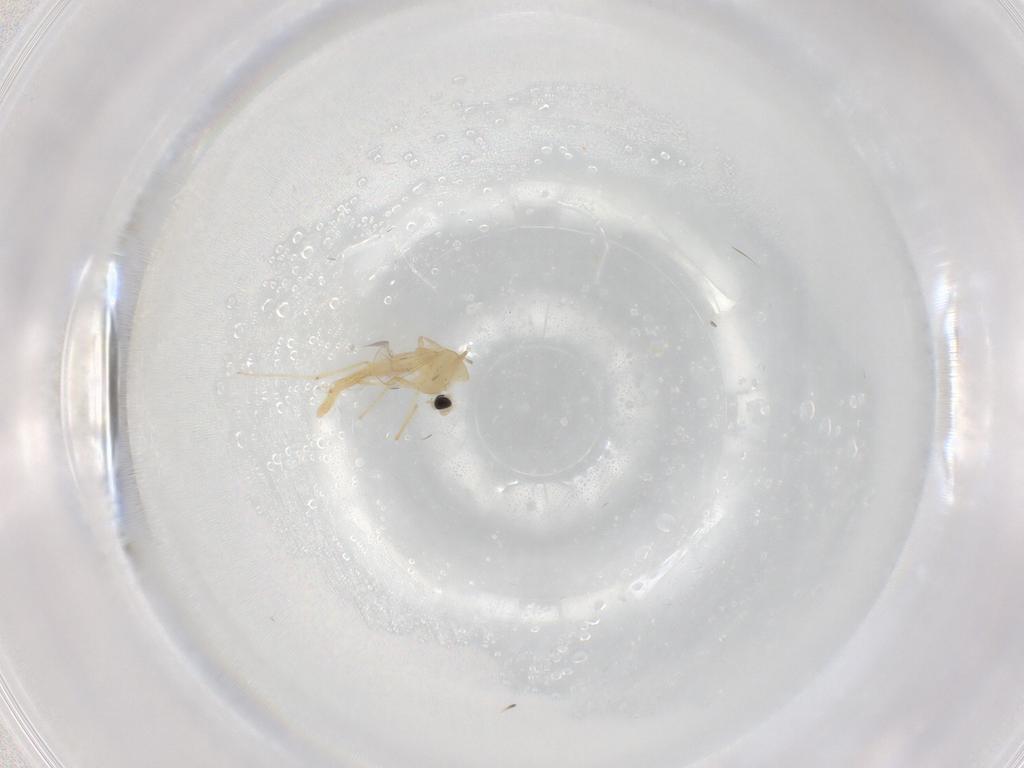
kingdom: Animalia
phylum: Arthropoda
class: Insecta
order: Diptera
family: Chironomidae
